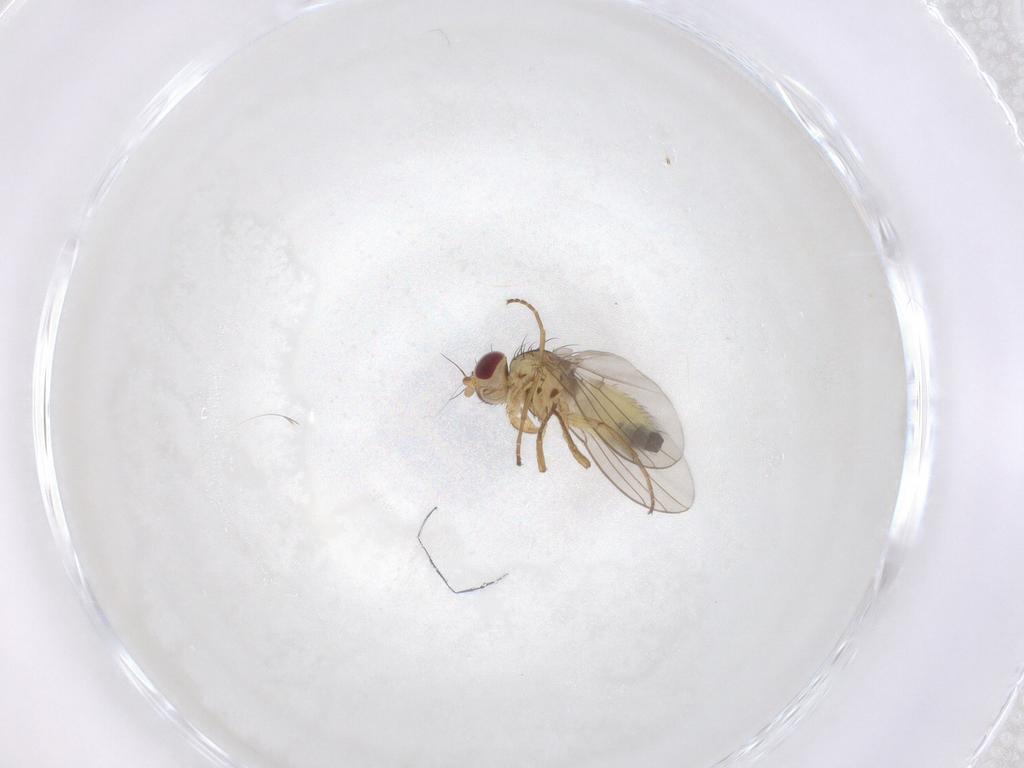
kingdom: Animalia
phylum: Arthropoda
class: Insecta
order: Diptera
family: Agromyzidae
